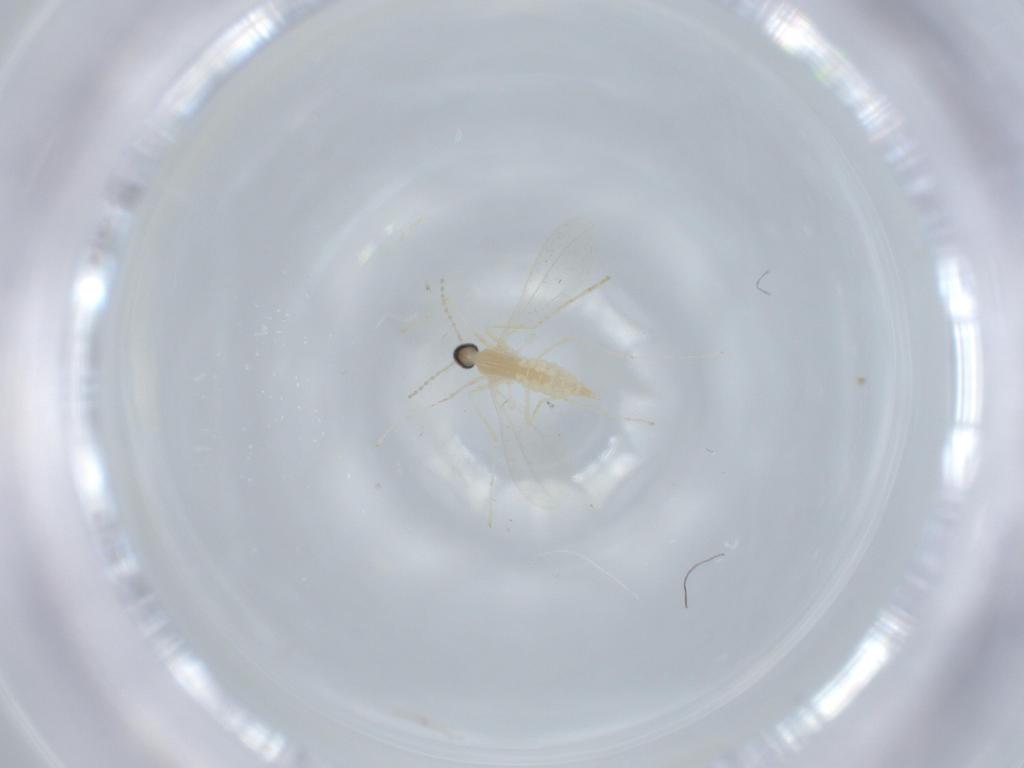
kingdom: Animalia
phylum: Arthropoda
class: Insecta
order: Diptera
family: Cecidomyiidae
